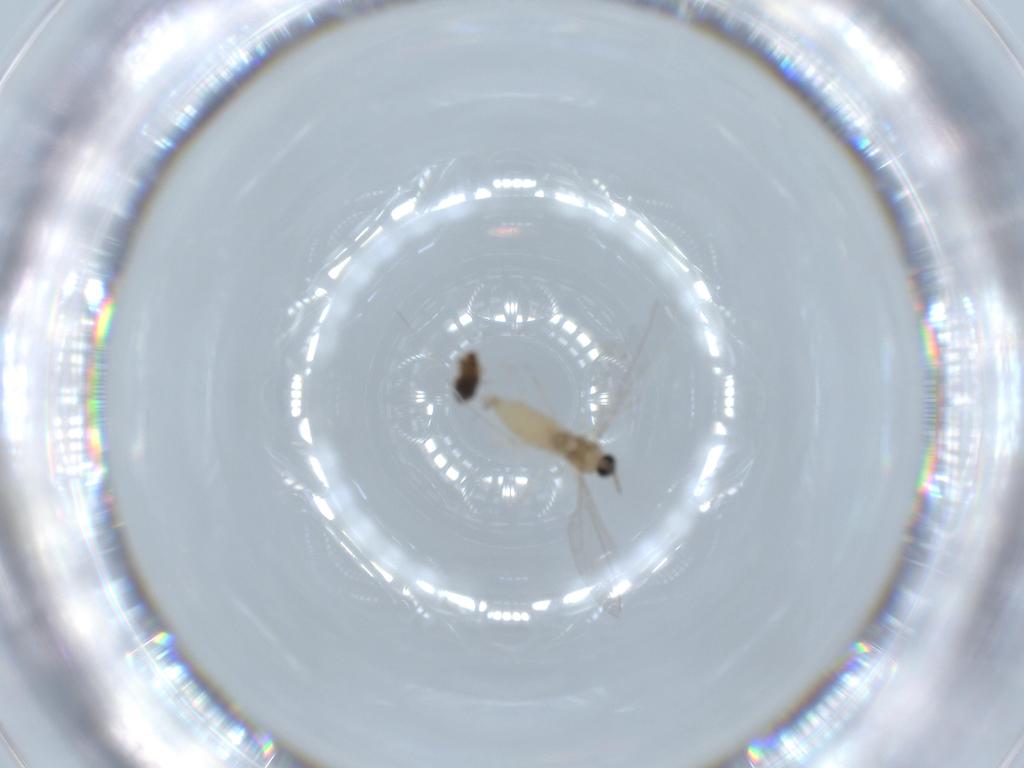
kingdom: Animalia
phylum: Arthropoda
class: Insecta
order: Diptera
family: Cecidomyiidae
